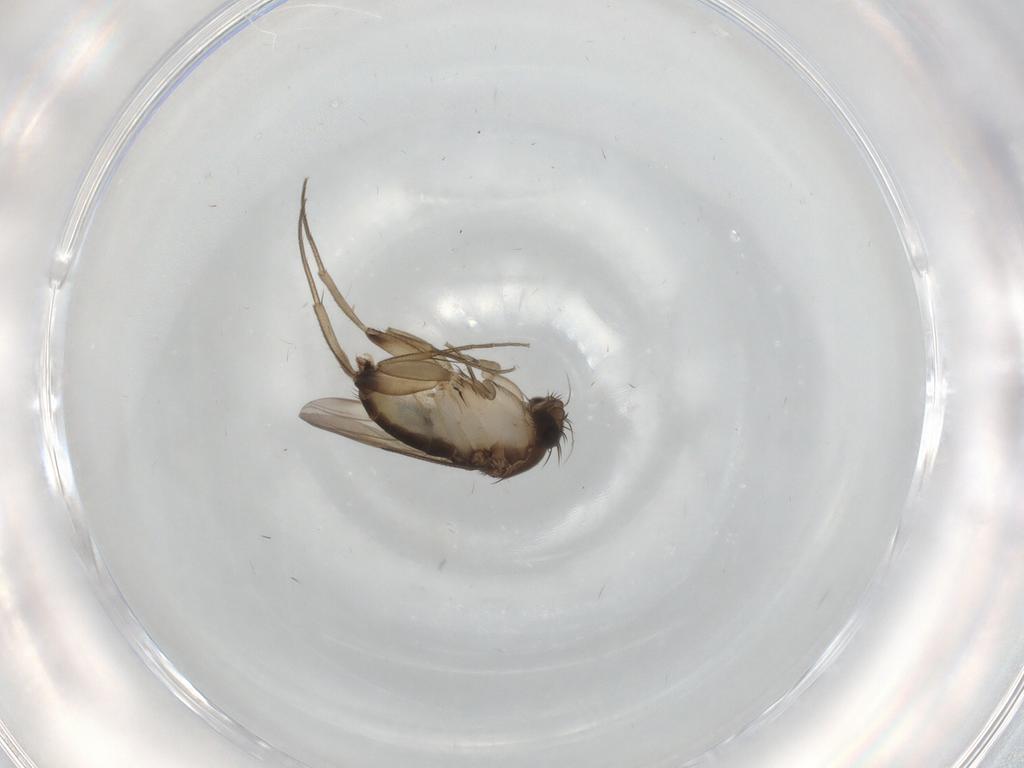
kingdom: Animalia
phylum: Arthropoda
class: Insecta
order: Diptera
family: Phoridae
